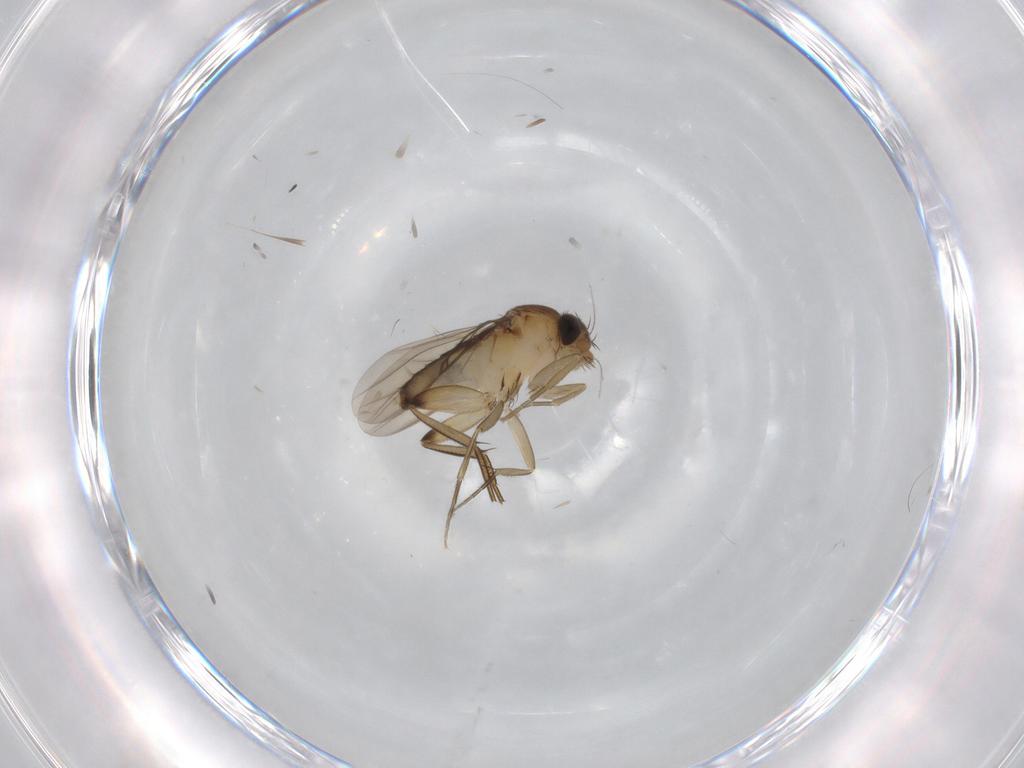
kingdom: Animalia
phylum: Arthropoda
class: Insecta
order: Diptera
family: Phoridae
